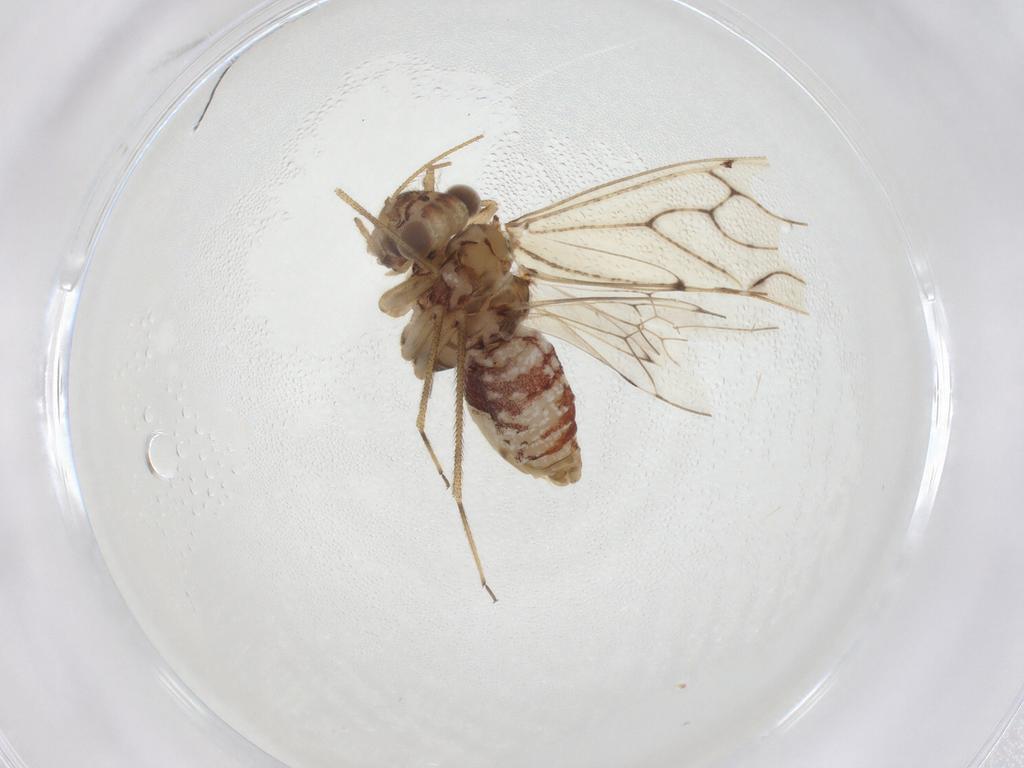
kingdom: Animalia
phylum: Arthropoda
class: Insecta
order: Psocodea
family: Epipsocidae
